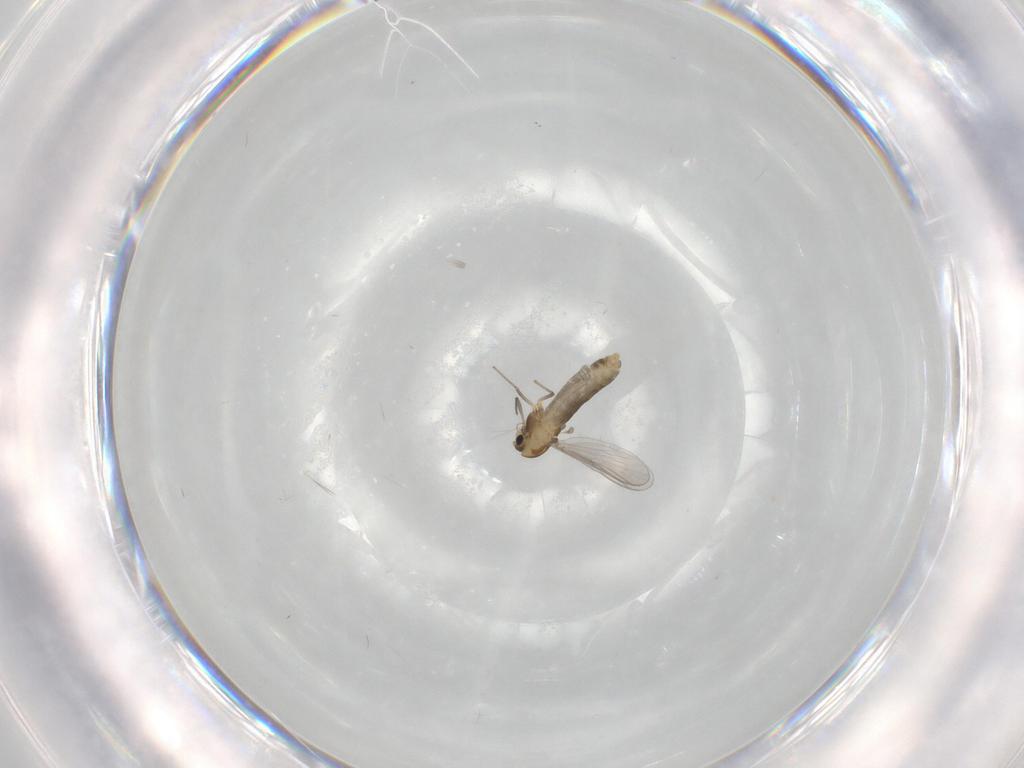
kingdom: Animalia
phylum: Arthropoda
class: Insecta
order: Diptera
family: Chironomidae
